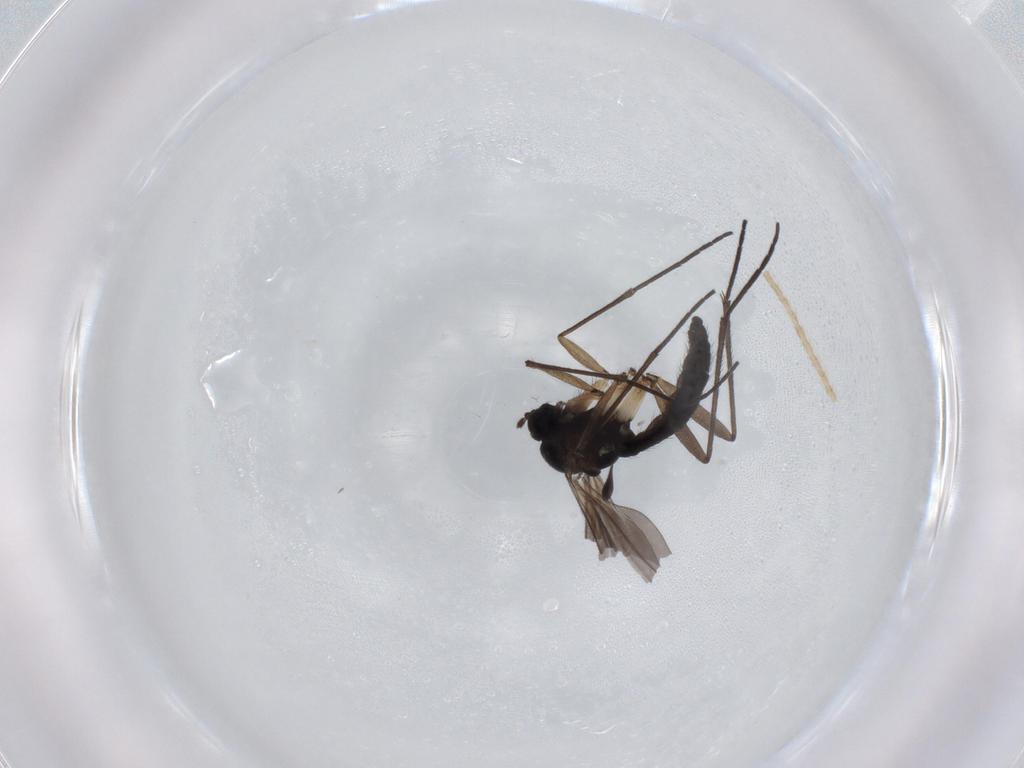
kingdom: Animalia
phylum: Arthropoda
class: Insecta
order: Diptera
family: Sciaridae
